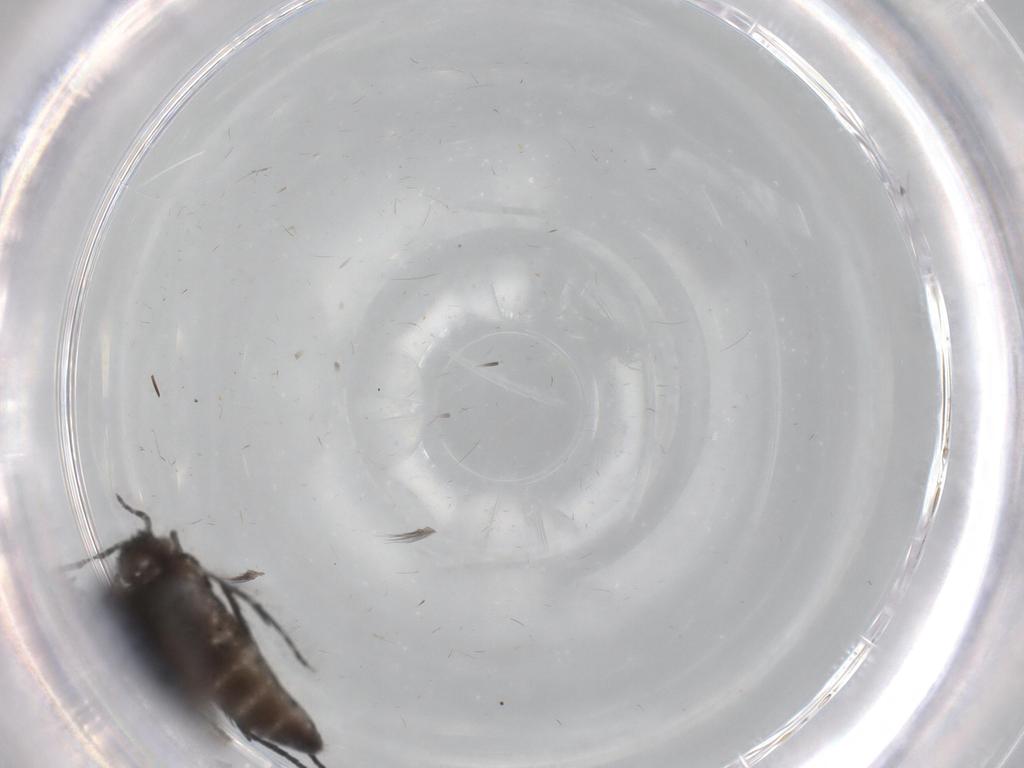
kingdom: Animalia
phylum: Arthropoda
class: Insecta
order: Trichoptera
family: Hydroptilidae
